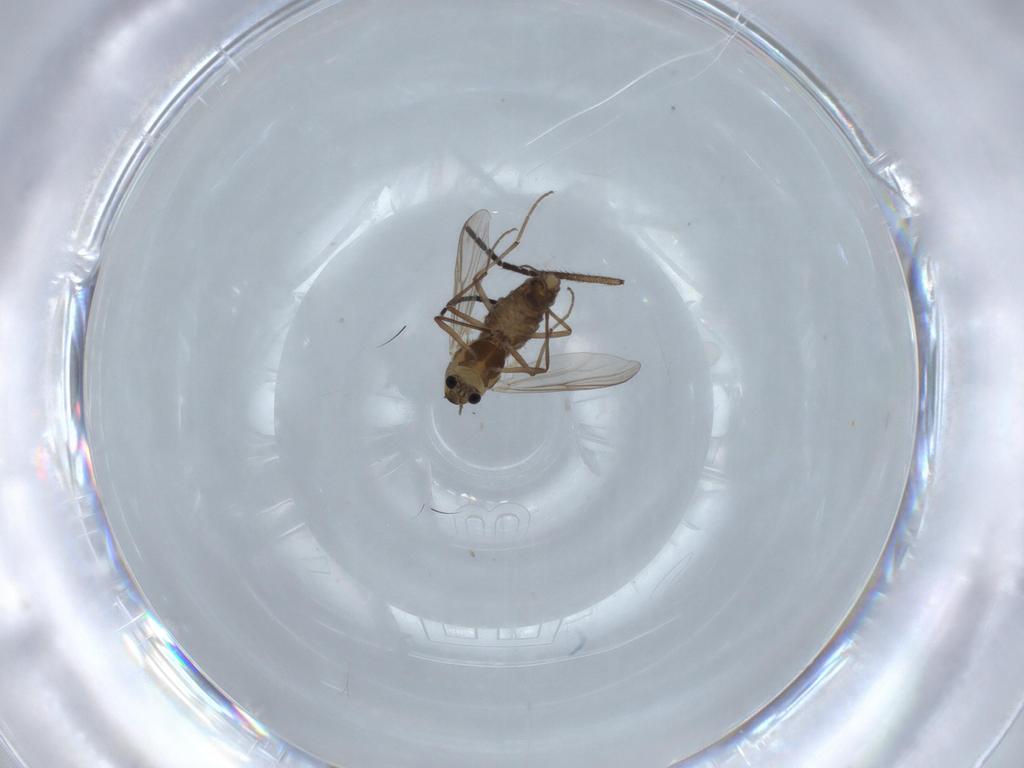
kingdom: Animalia
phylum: Arthropoda
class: Insecta
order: Diptera
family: Chironomidae
